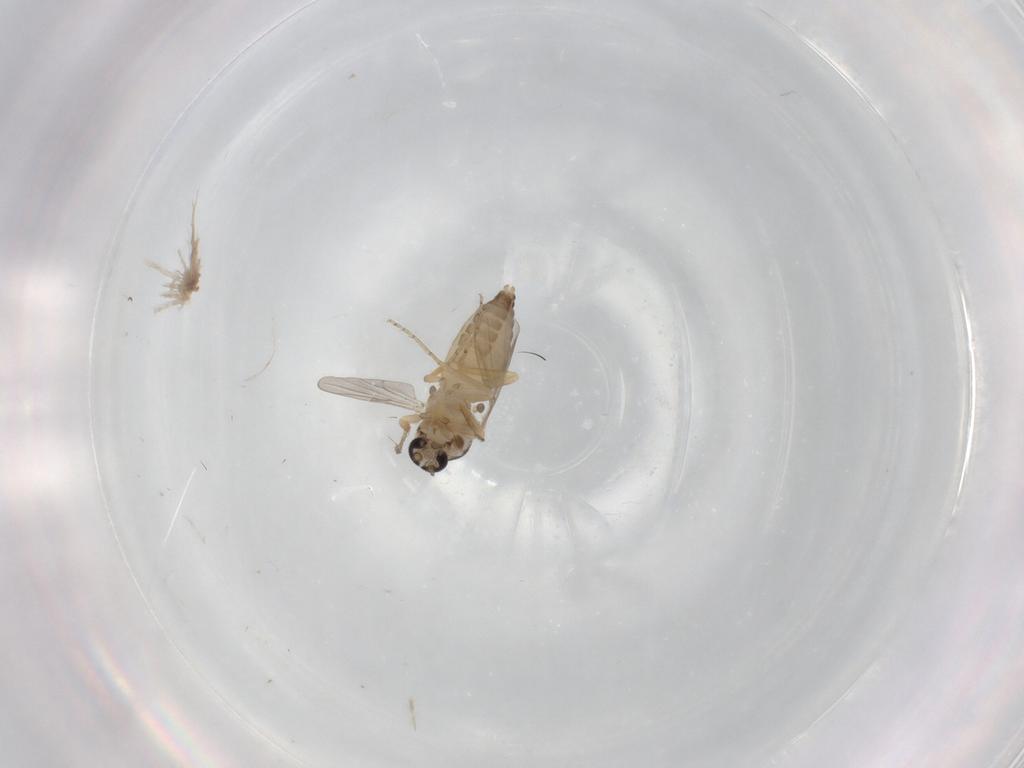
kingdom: Animalia
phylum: Arthropoda
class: Insecta
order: Diptera
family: Ceratopogonidae
